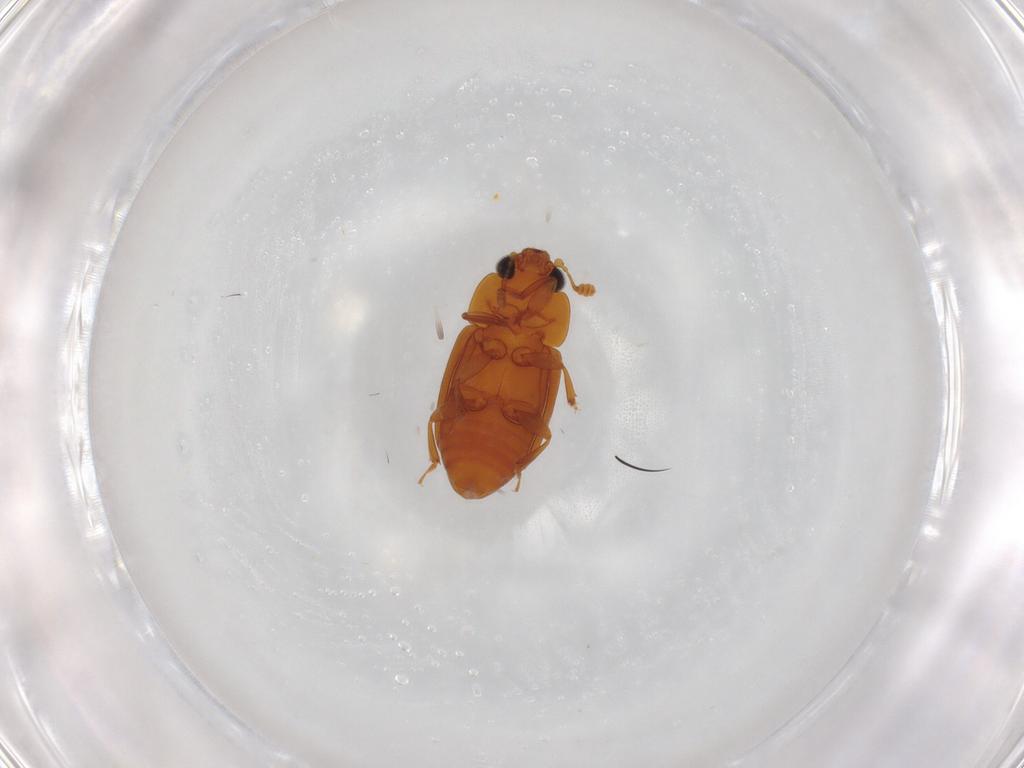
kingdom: Animalia
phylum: Arthropoda
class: Insecta
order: Coleoptera
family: Nitidulidae
